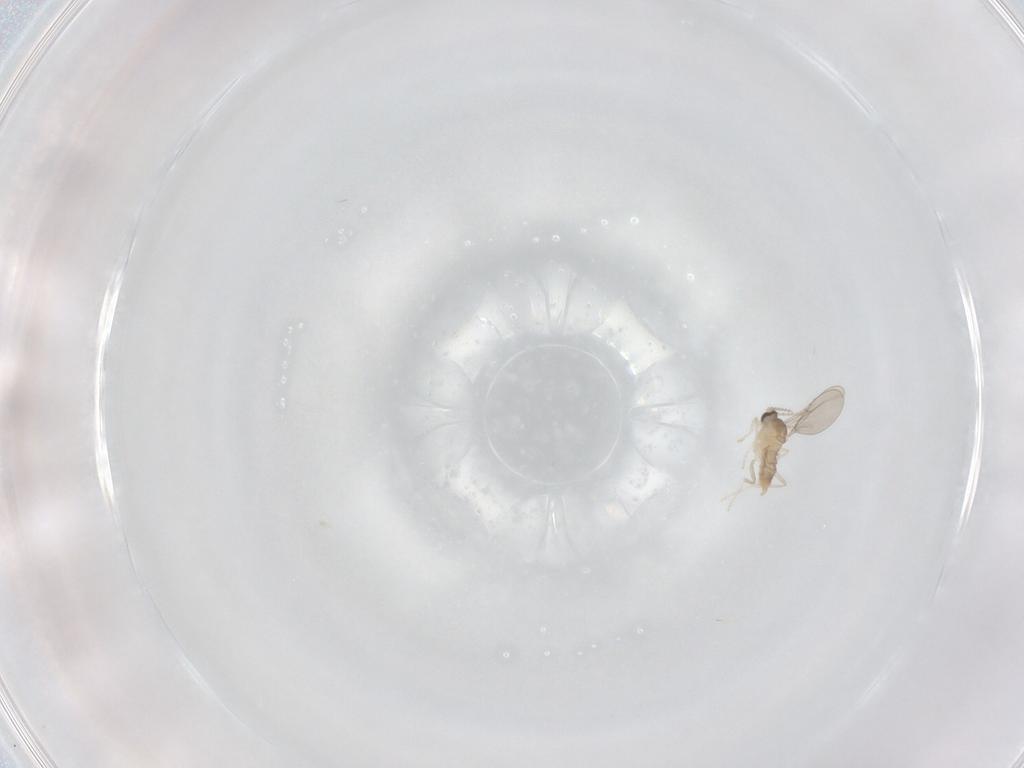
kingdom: Animalia
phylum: Arthropoda
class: Insecta
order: Diptera
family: Cecidomyiidae
